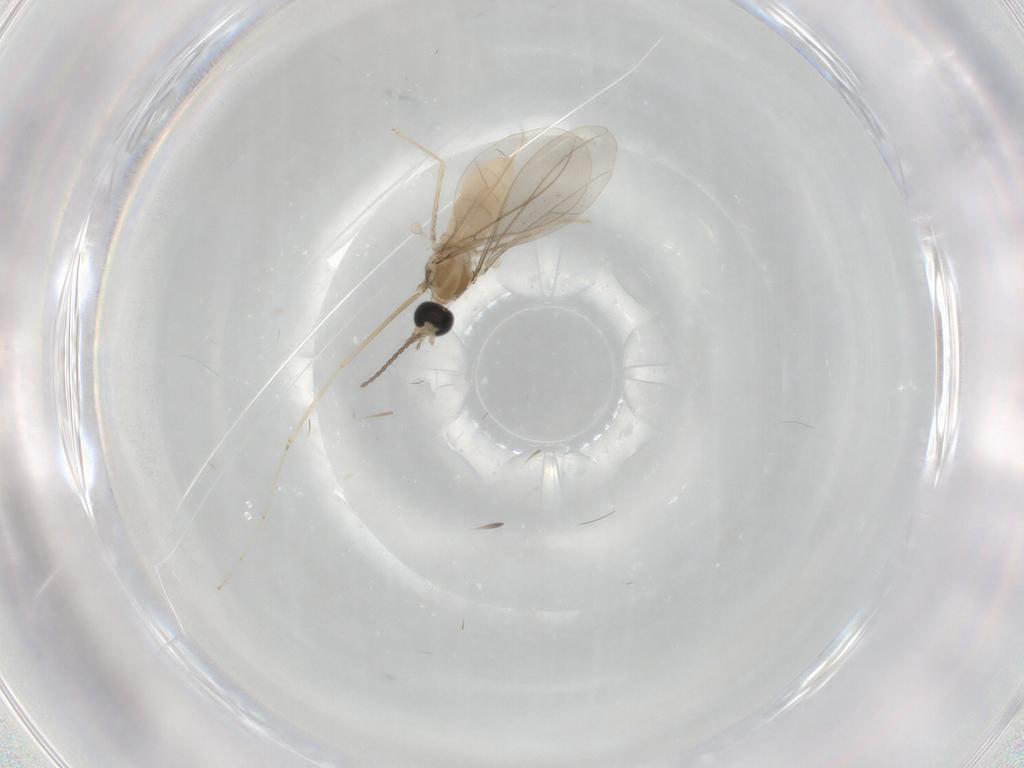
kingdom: Animalia
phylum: Arthropoda
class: Insecta
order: Diptera
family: Cecidomyiidae
